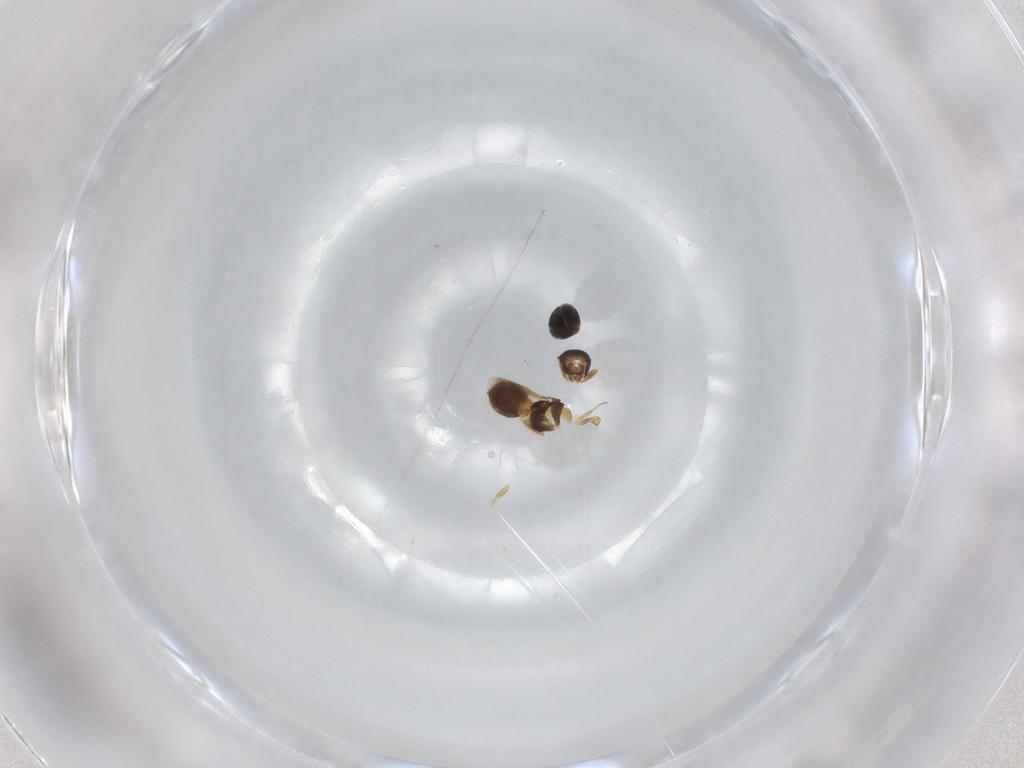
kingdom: Animalia
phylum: Arthropoda
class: Insecta
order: Hymenoptera
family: Scelionidae
